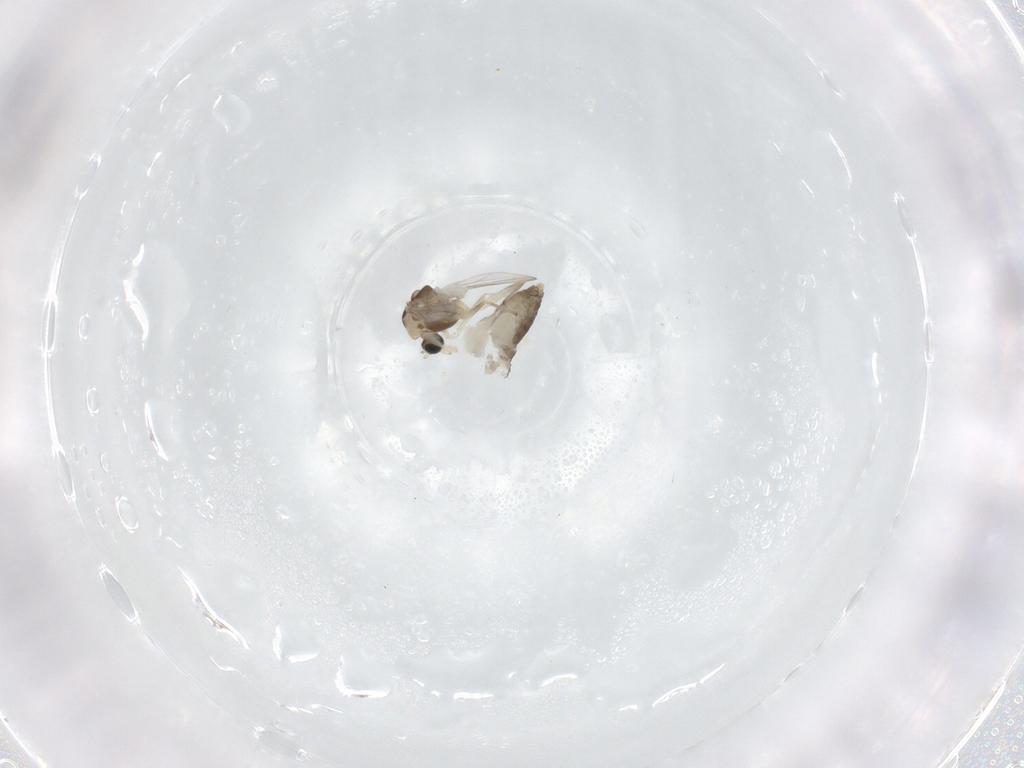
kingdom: Animalia
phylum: Arthropoda
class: Insecta
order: Diptera
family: Chironomidae
